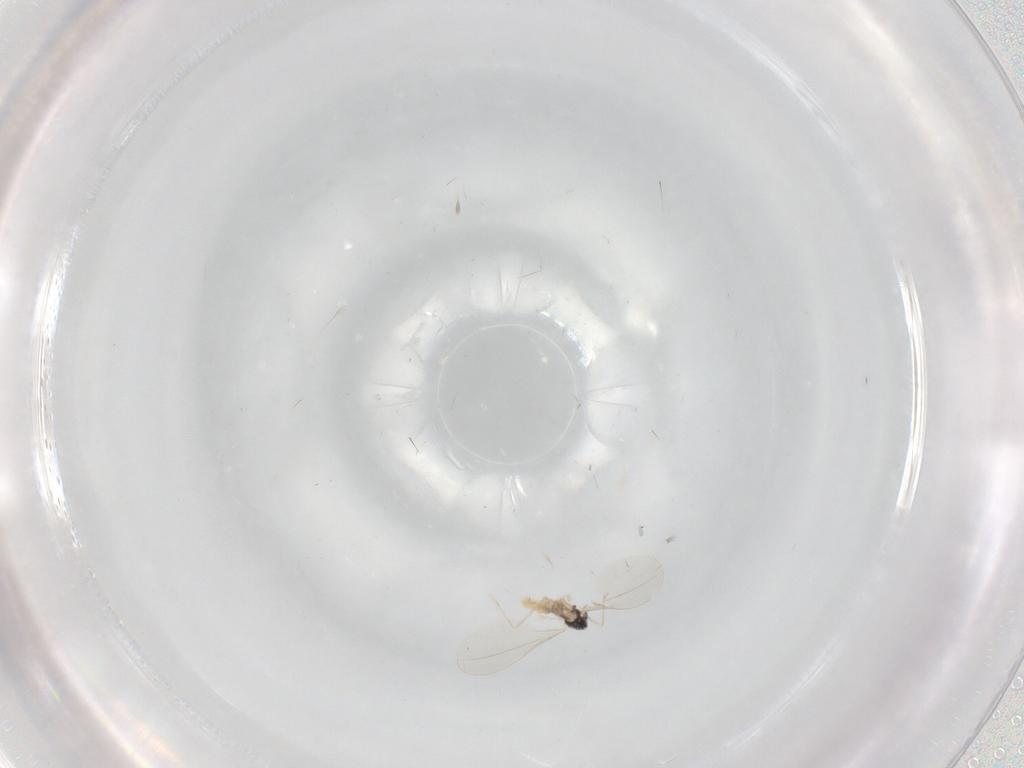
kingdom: Animalia
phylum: Arthropoda
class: Insecta
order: Diptera
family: Cecidomyiidae
